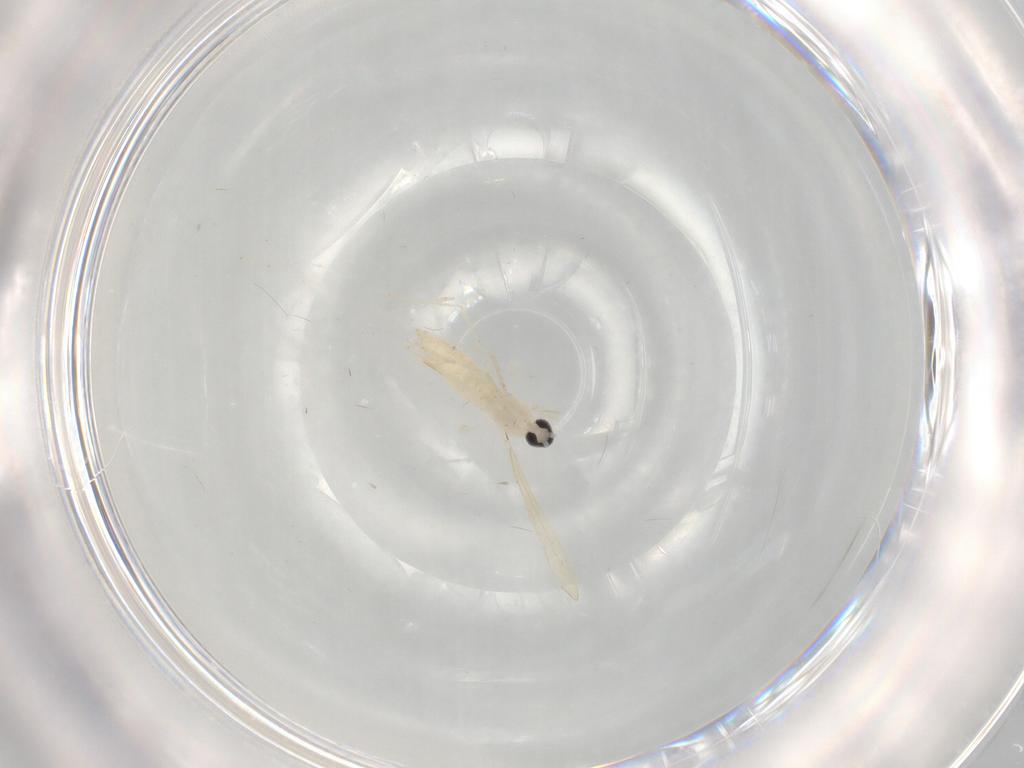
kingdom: Animalia
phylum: Arthropoda
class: Insecta
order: Diptera
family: Cecidomyiidae
